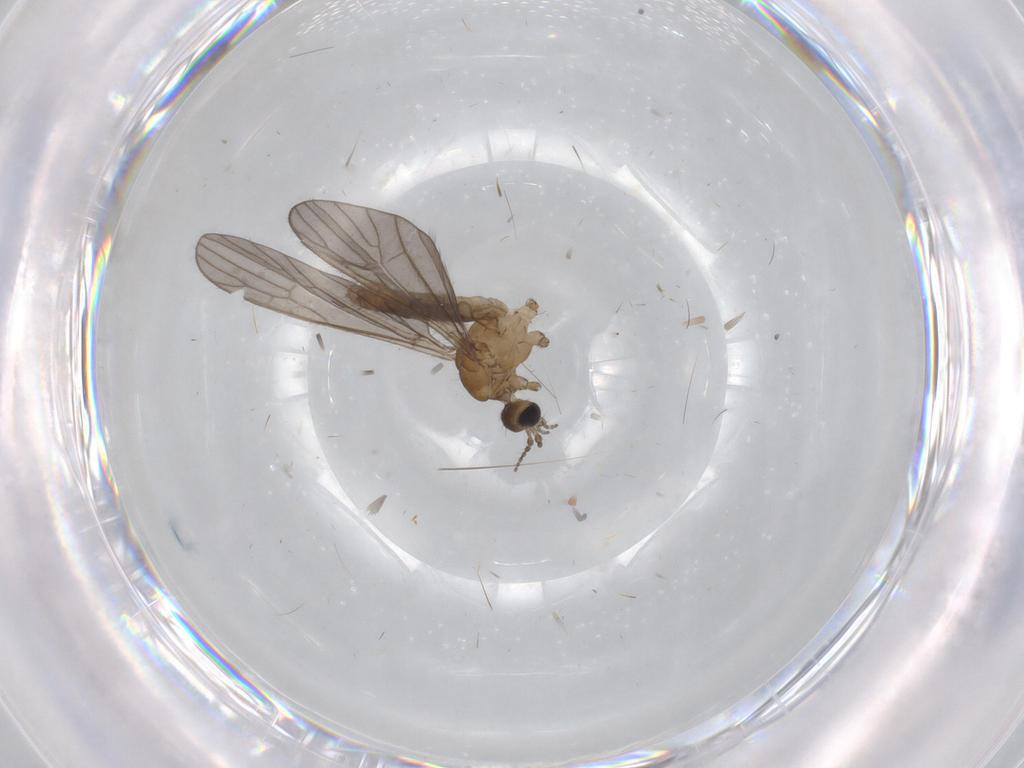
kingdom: Animalia
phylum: Arthropoda
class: Insecta
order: Diptera
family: Cecidomyiidae
